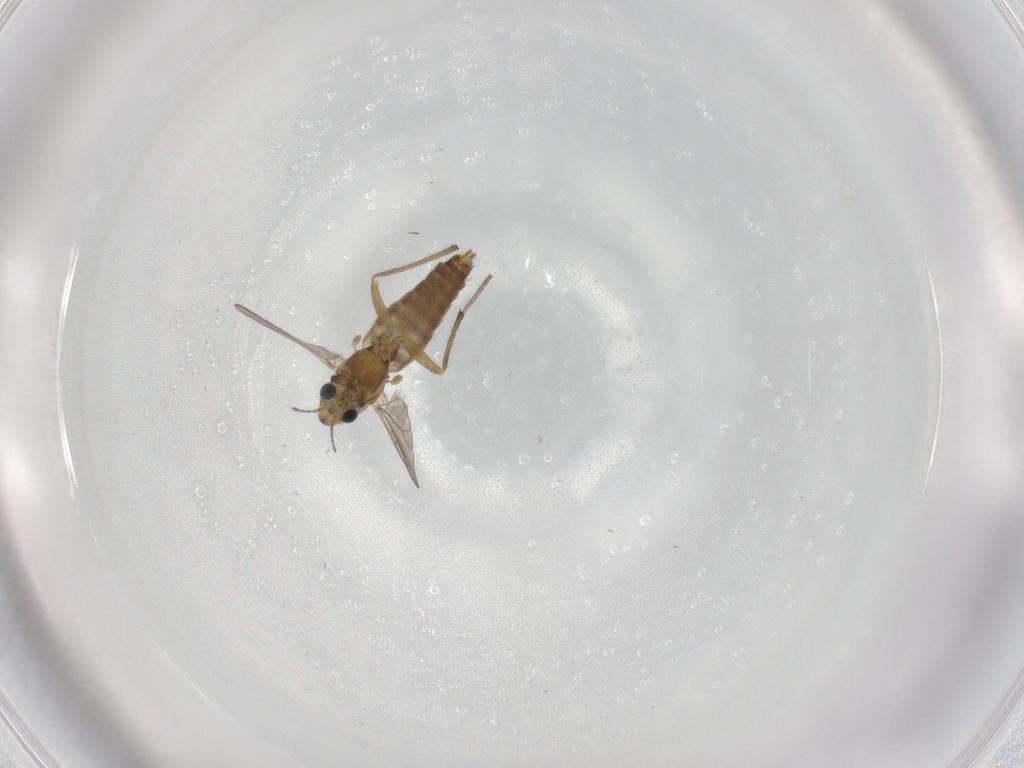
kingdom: Animalia
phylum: Arthropoda
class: Insecta
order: Diptera
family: Chironomidae
